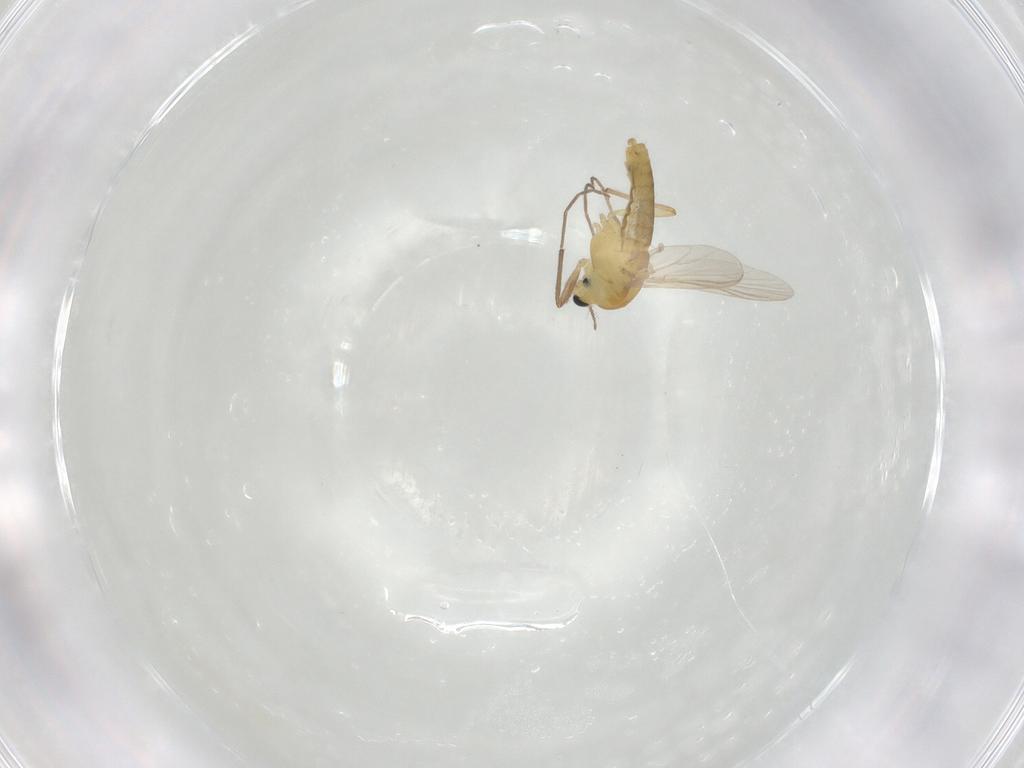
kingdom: Animalia
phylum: Arthropoda
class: Insecta
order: Diptera
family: Chironomidae
